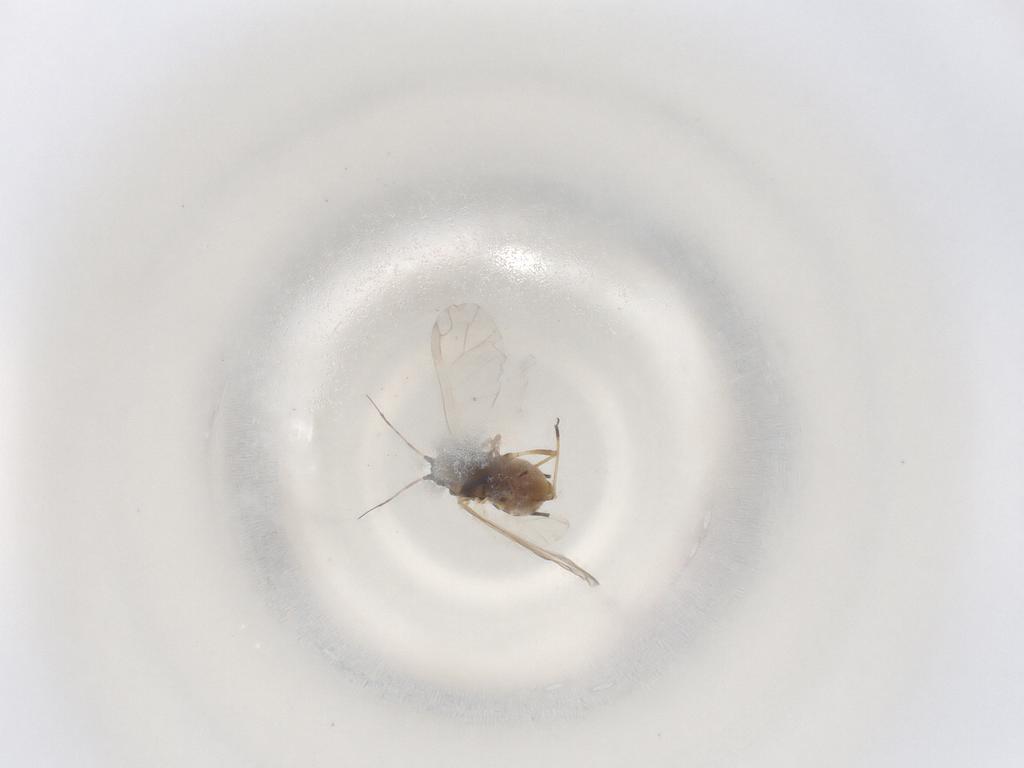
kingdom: Animalia
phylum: Arthropoda
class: Insecta
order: Hemiptera
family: Aphididae
